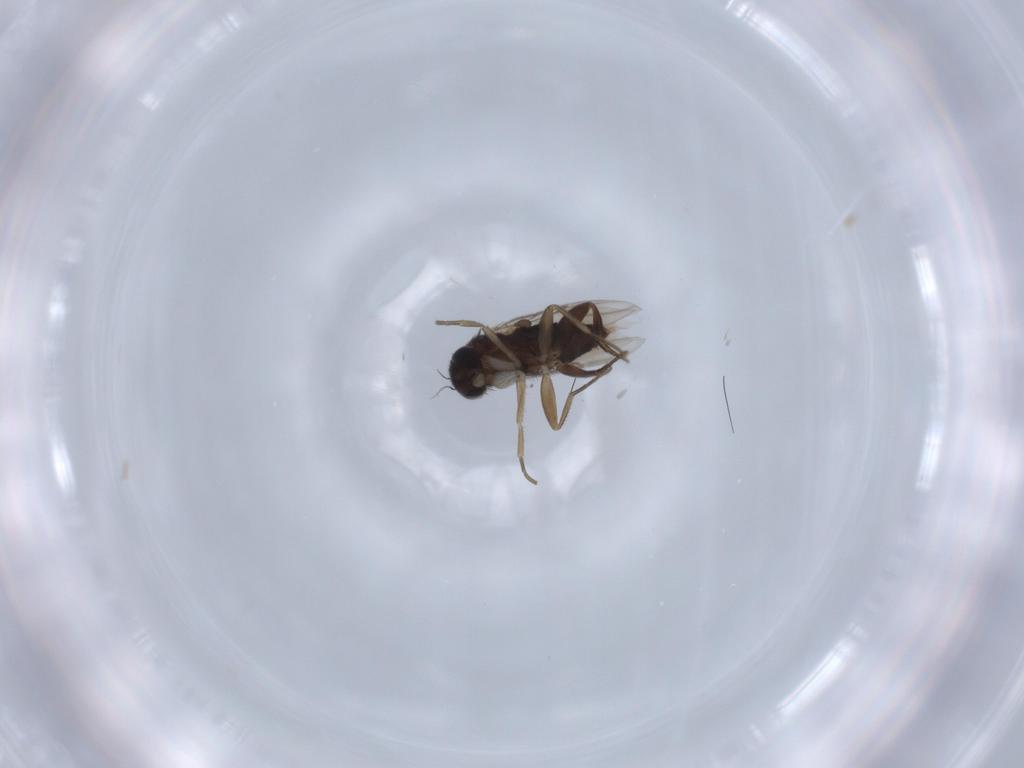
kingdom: Animalia
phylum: Arthropoda
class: Insecta
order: Diptera
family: Phoridae
